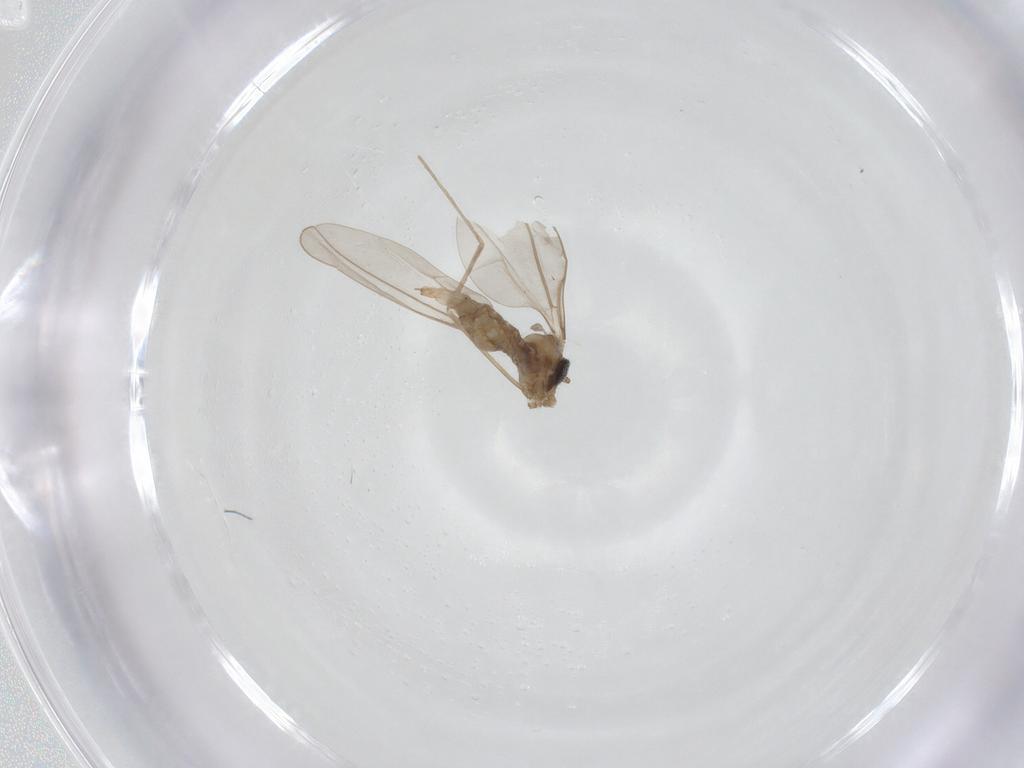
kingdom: Animalia
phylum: Arthropoda
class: Insecta
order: Diptera
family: Cecidomyiidae
